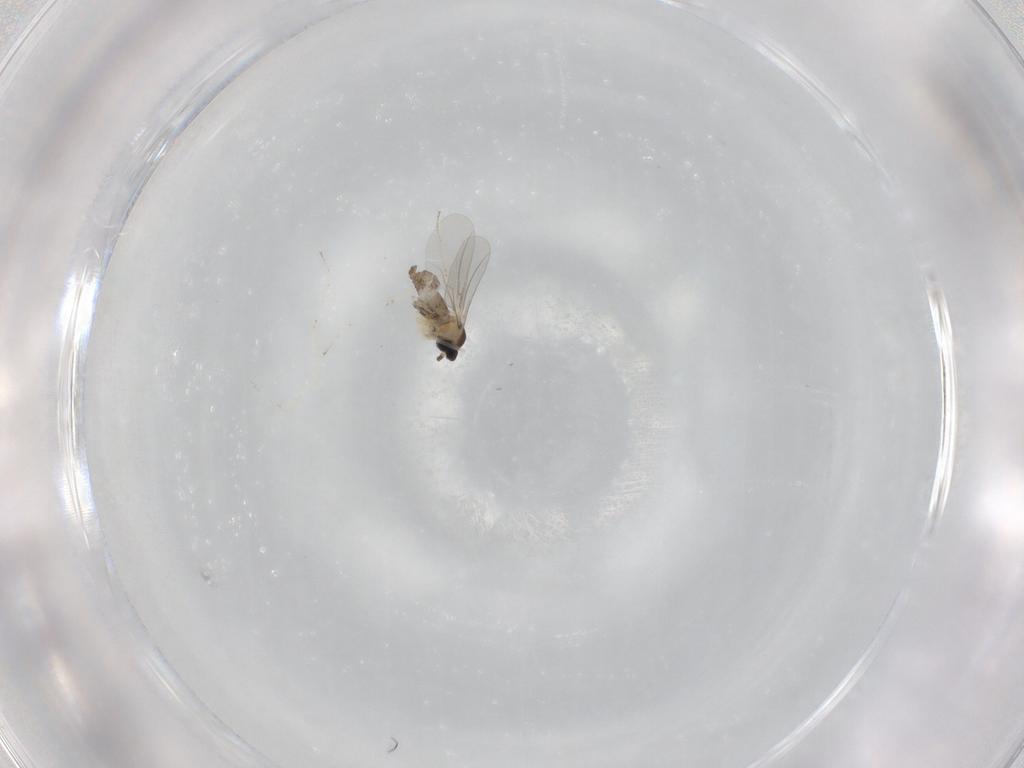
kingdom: Animalia
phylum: Arthropoda
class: Insecta
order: Diptera
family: Cecidomyiidae
